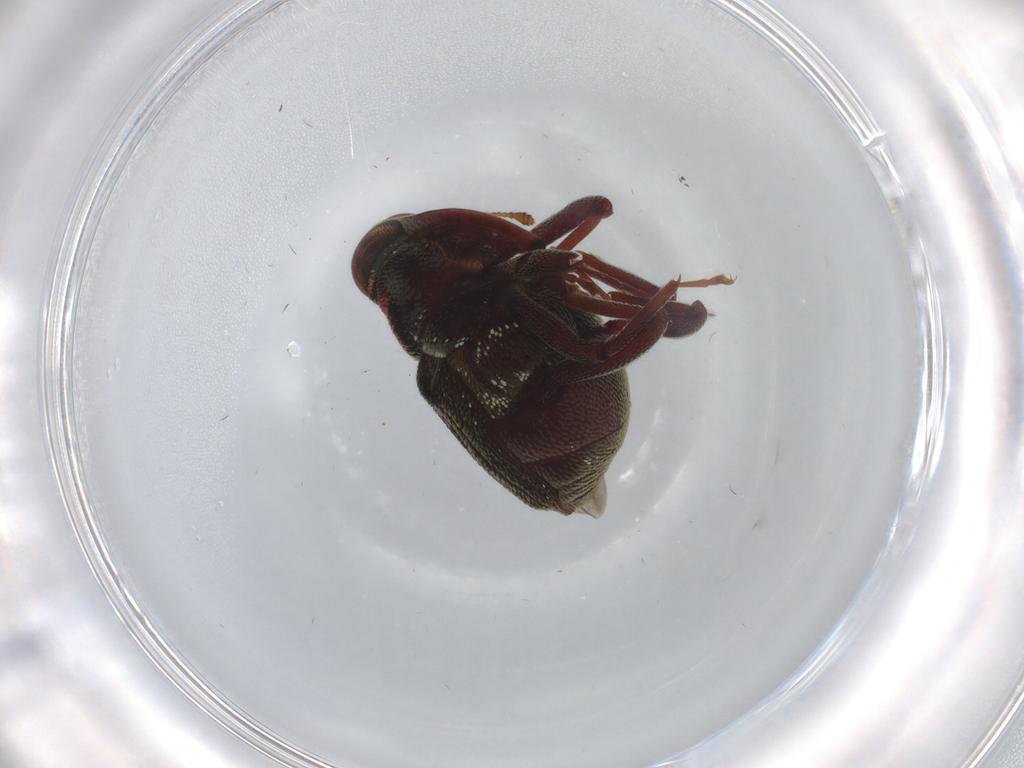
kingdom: Animalia
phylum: Arthropoda
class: Insecta
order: Coleoptera
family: Curculionidae
